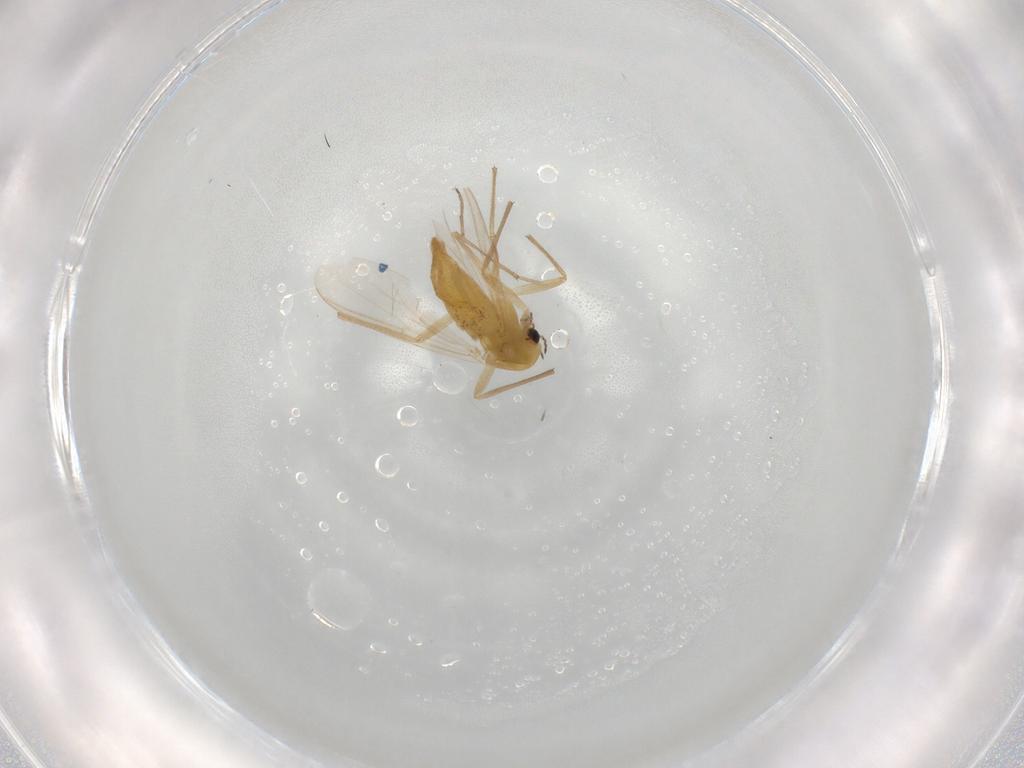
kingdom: Animalia
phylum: Arthropoda
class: Insecta
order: Diptera
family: Chironomidae
